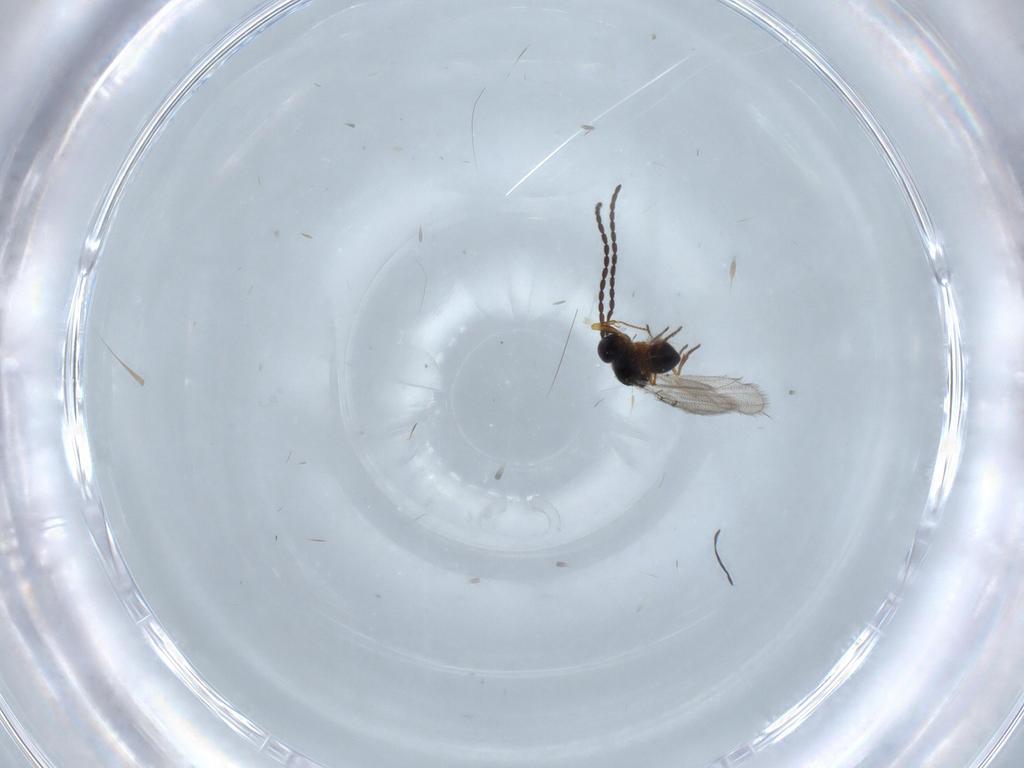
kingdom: Animalia
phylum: Arthropoda
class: Insecta
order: Hymenoptera
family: Figitidae
